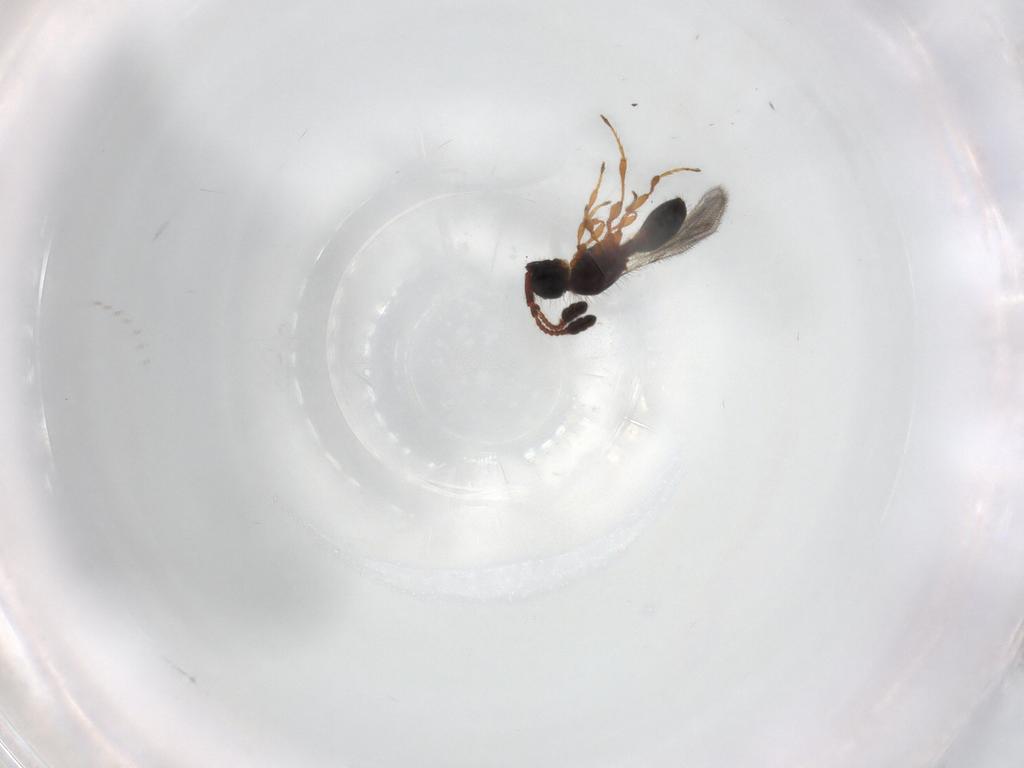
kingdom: Animalia
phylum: Arthropoda
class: Insecta
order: Hymenoptera
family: Diapriidae
